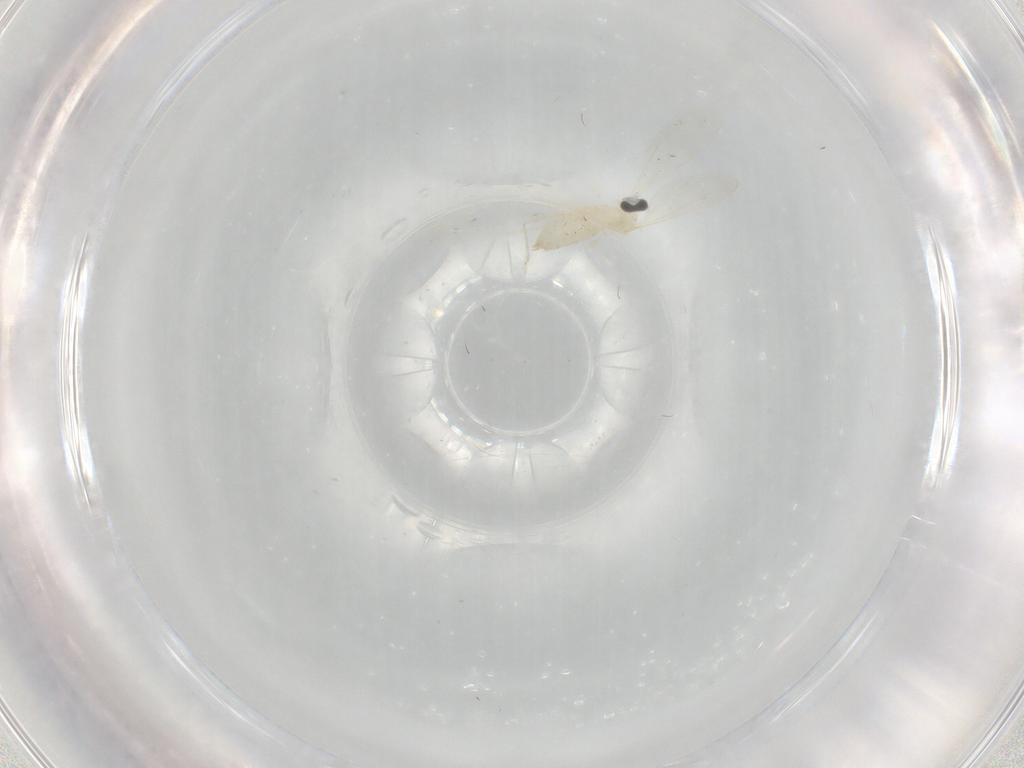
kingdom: Animalia
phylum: Arthropoda
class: Insecta
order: Diptera
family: Cecidomyiidae
